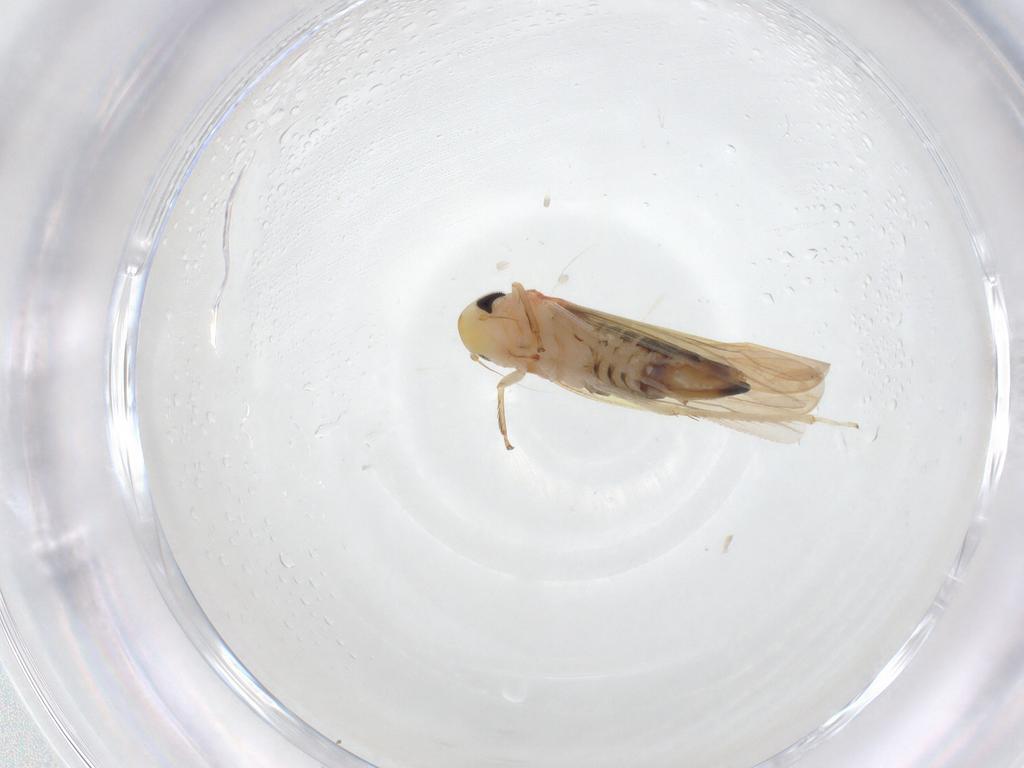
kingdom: Animalia
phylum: Arthropoda
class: Insecta
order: Hemiptera
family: Cicadellidae
